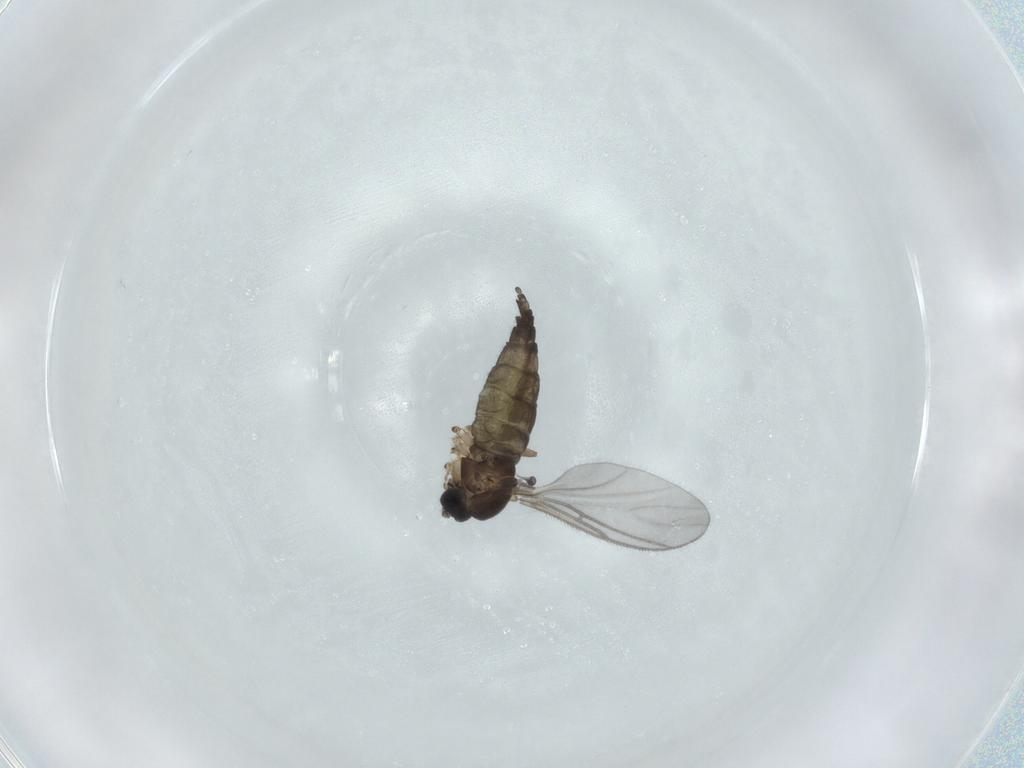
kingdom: Animalia
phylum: Arthropoda
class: Insecta
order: Diptera
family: Sciaridae
